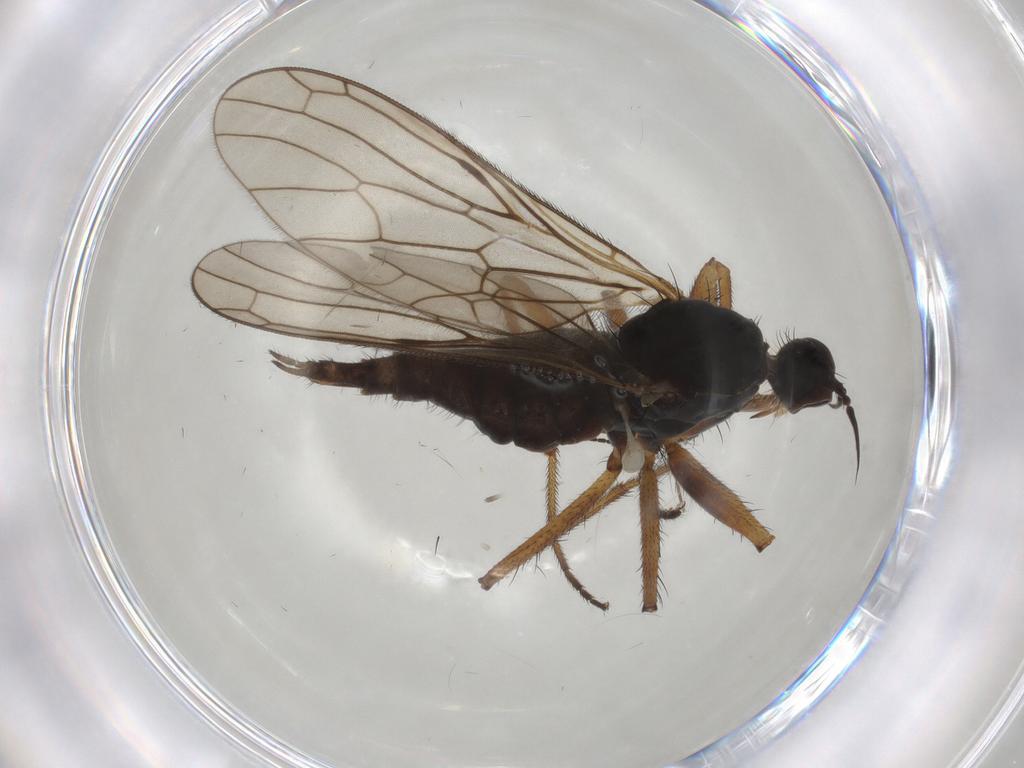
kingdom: Animalia
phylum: Arthropoda
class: Insecta
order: Diptera
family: Empididae
